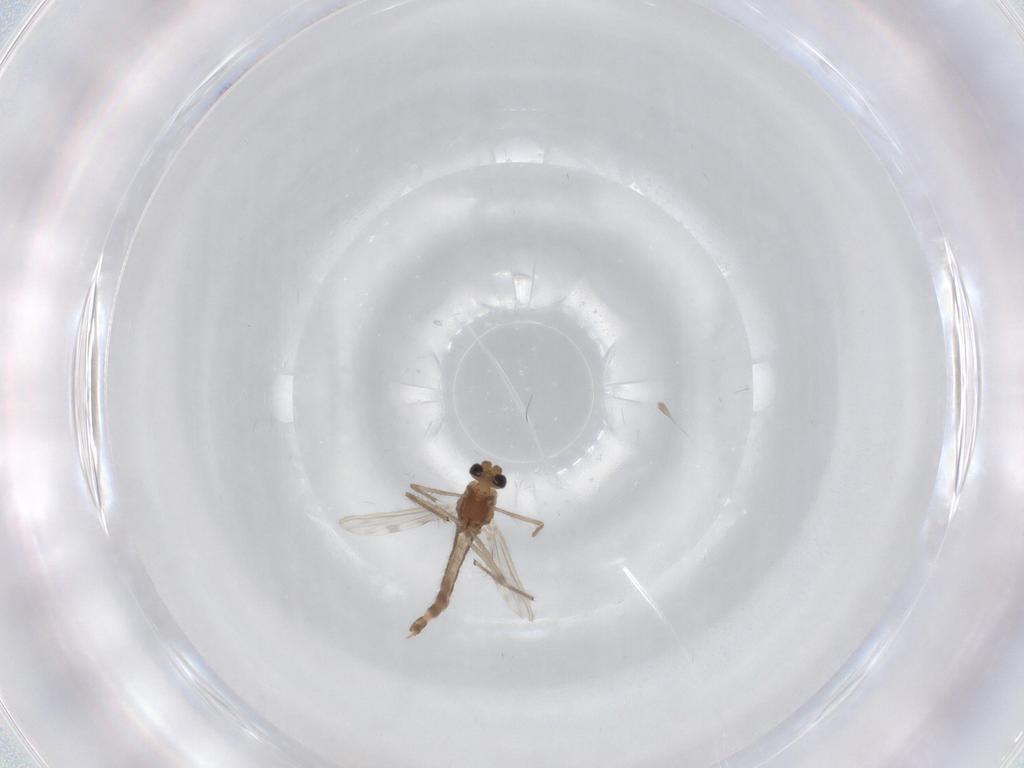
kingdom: Animalia
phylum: Arthropoda
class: Insecta
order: Diptera
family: Chironomidae
